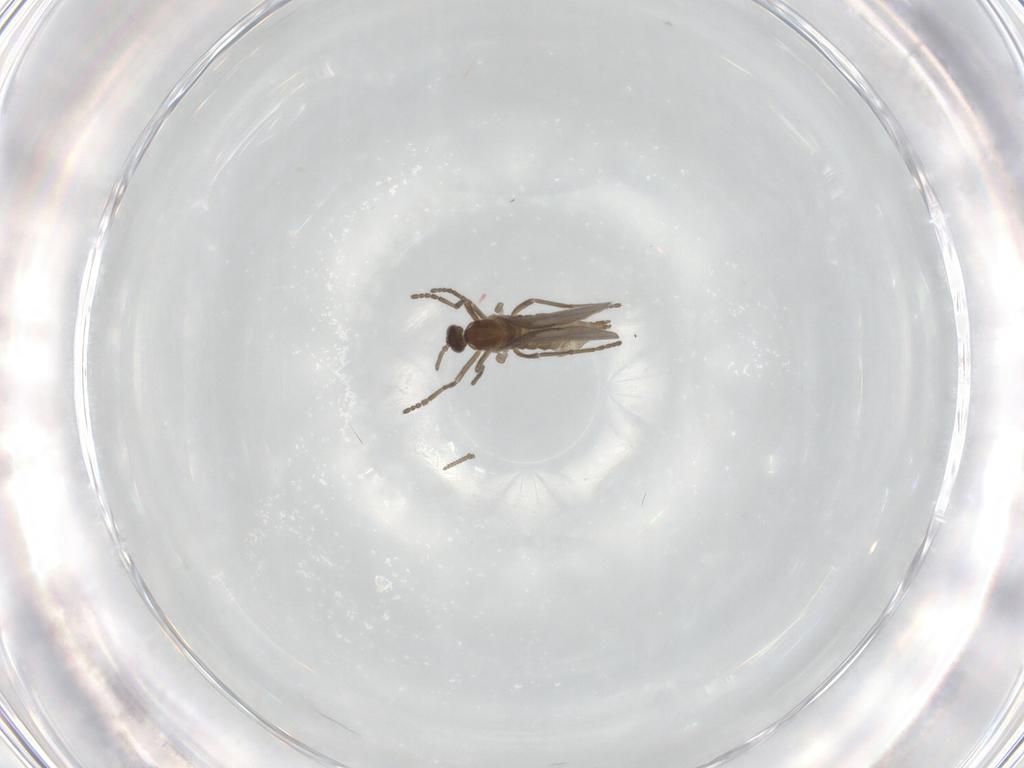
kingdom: Animalia
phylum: Arthropoda
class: Insecta
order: Diptera
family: Cecidomyiidae
